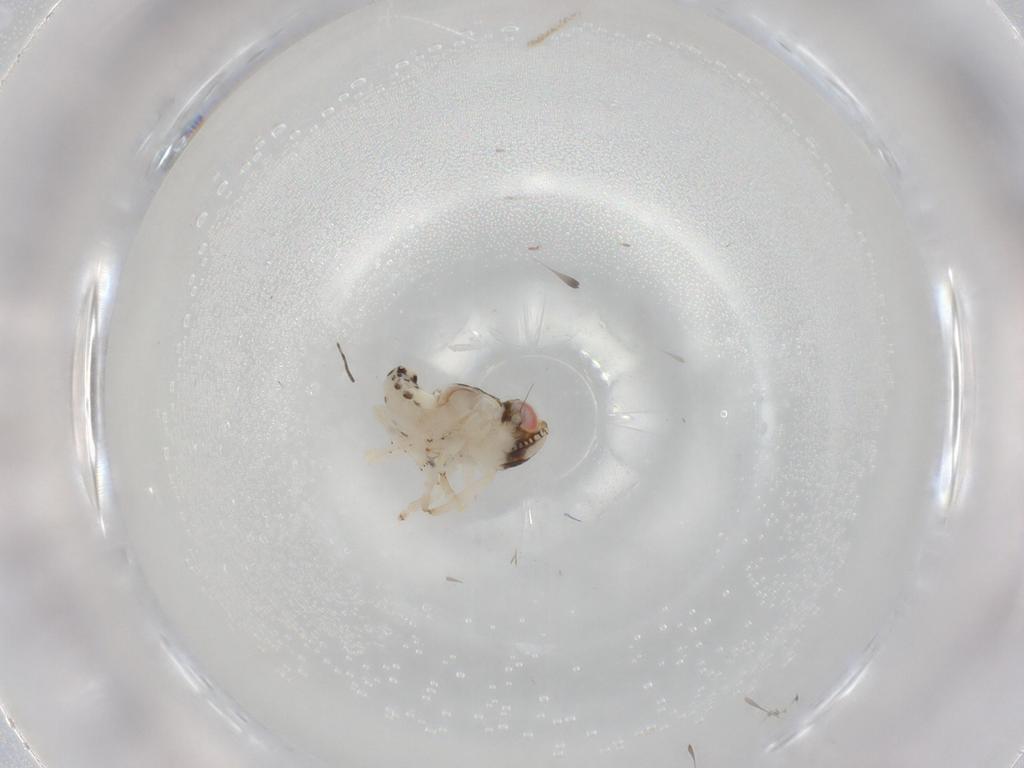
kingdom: Animalia
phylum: Arthropoda
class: Insecta
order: Hemiptera
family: Nogodinidae
